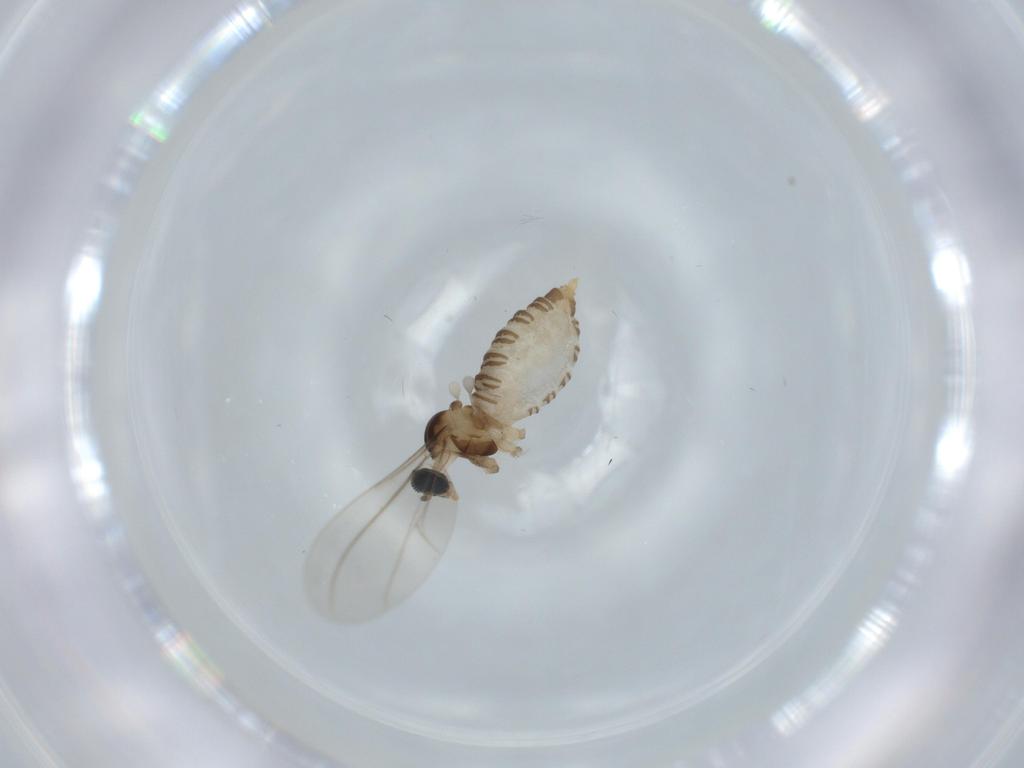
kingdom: Animalia
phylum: Arthropoda
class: Insecta
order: Diptera
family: Cecidomyiidae
